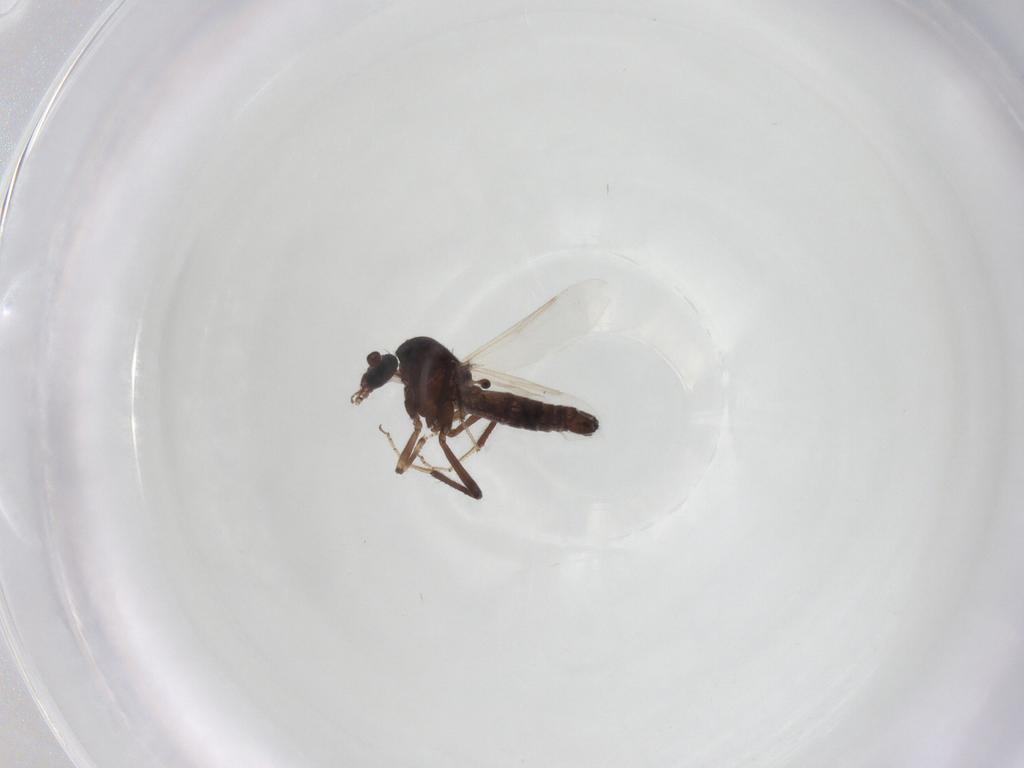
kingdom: Animalia
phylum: Arthropoda
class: Insecta
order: Diptera
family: Ceratopogonidae
